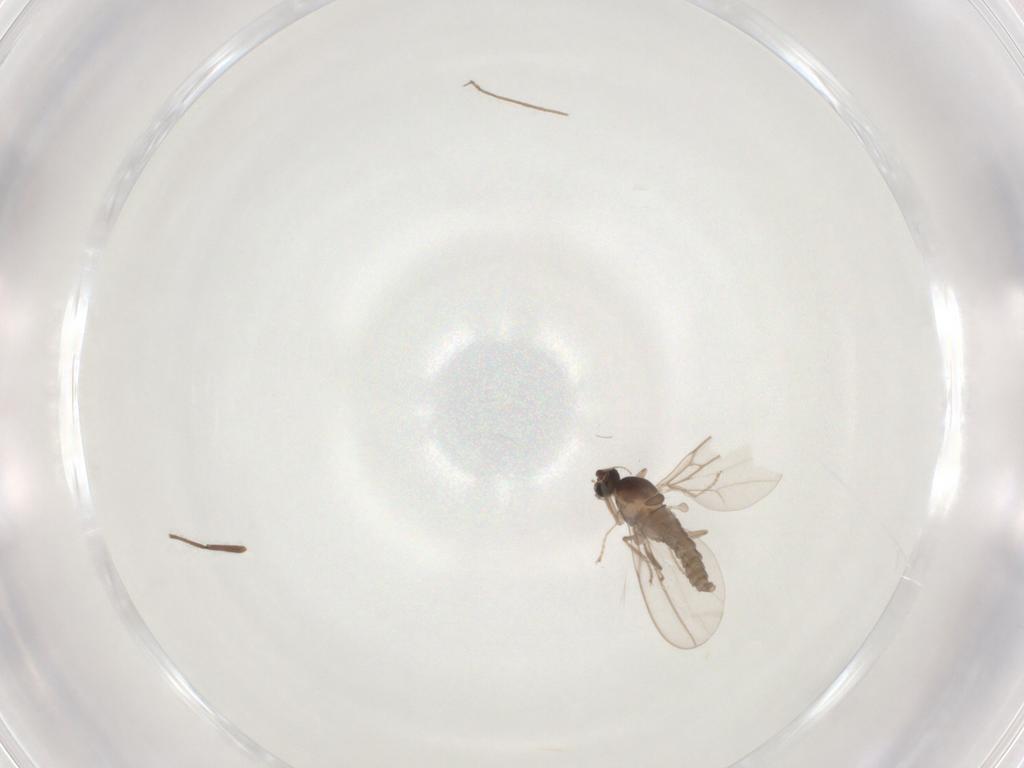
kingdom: Animalia
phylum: Arthropoda
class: Insecta
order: Diptera
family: Cecidomyiidae
